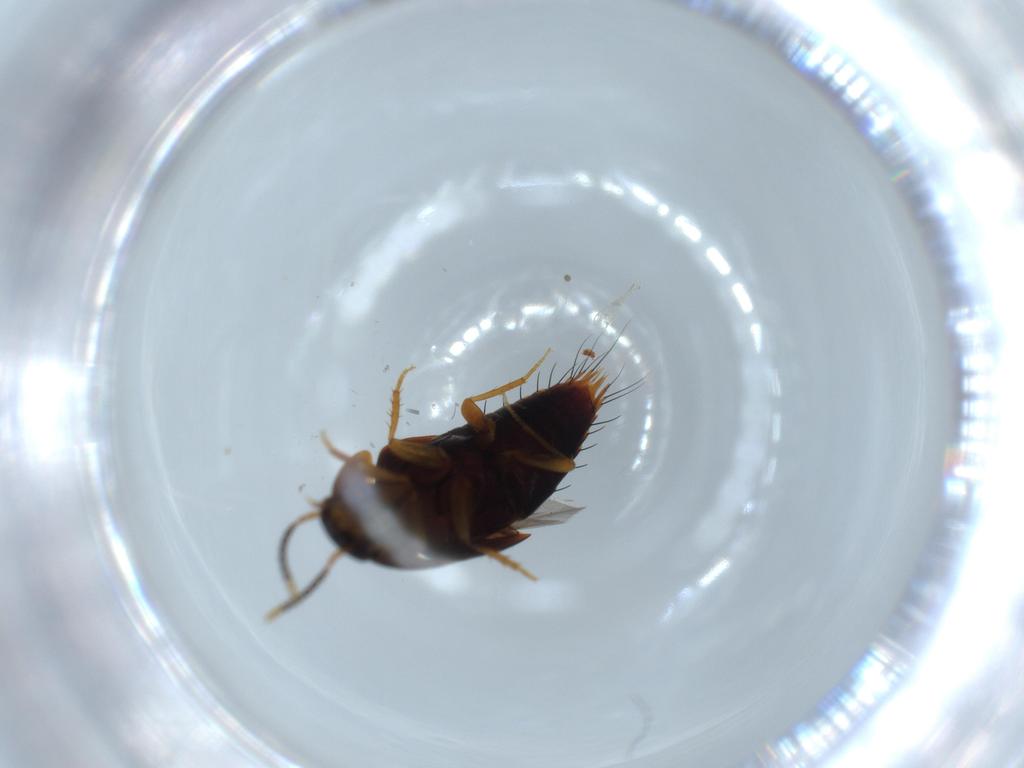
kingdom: Animalia
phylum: Arthropoda
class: Insecta
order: Coleoptera
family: Staphylinidae
